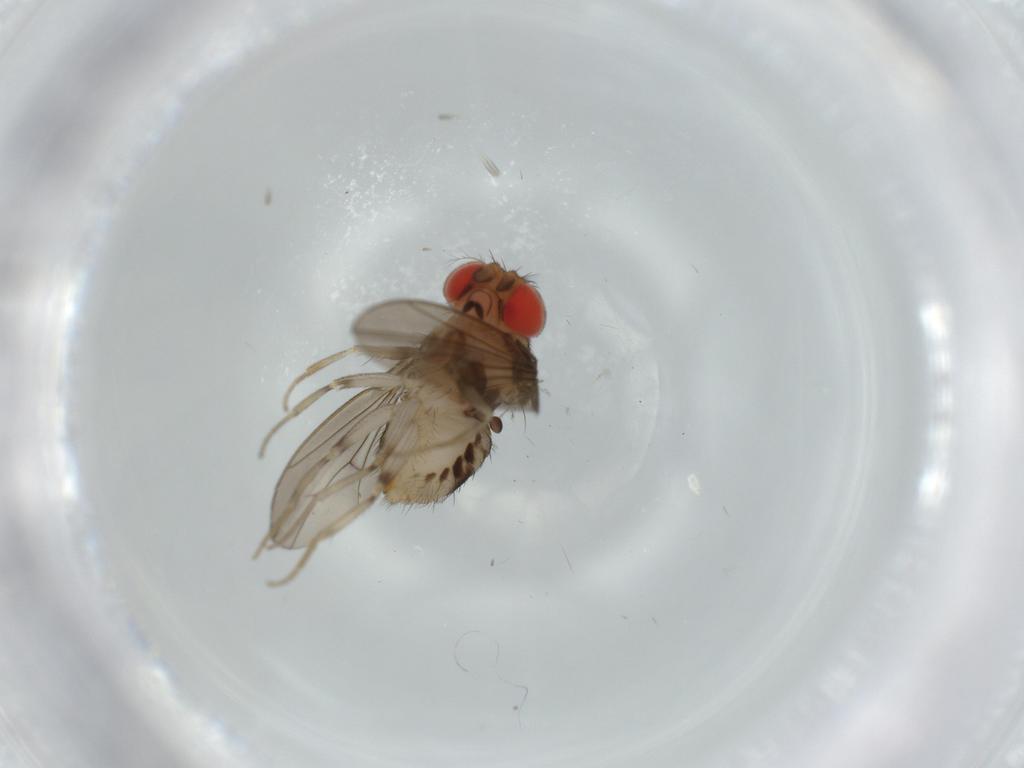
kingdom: Animalia
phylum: Arthropoda
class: Insecta
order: Diptera
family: Drosophilidae
